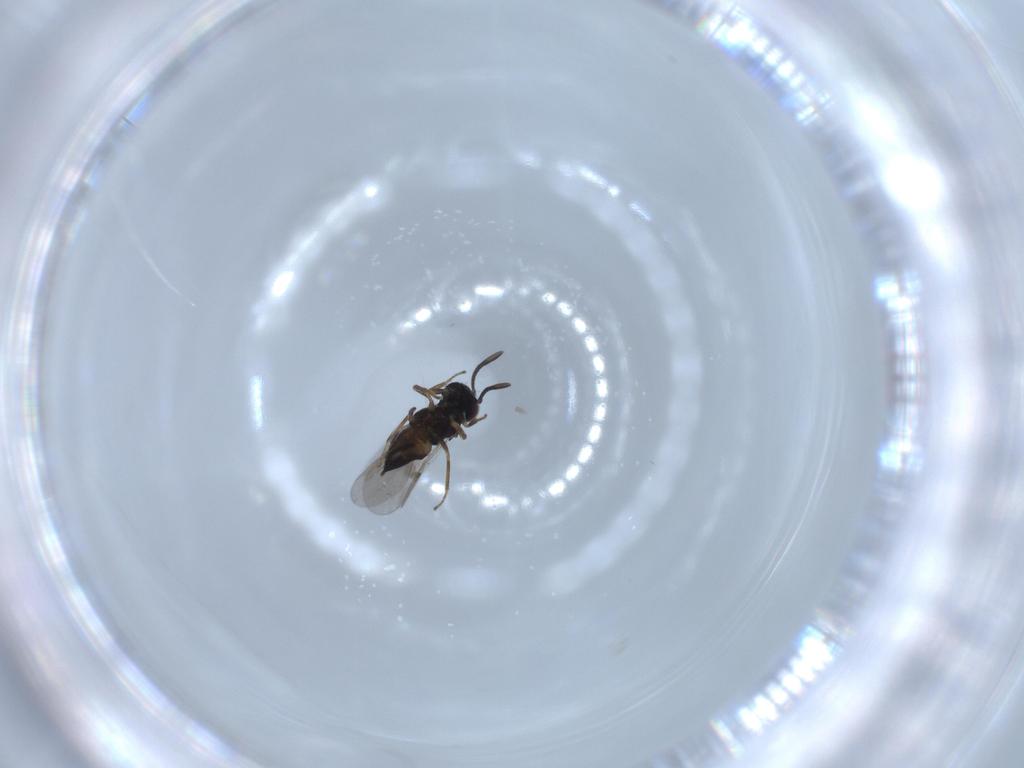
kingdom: Animalia
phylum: Arthropoda
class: Insecta
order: Hymenoptera
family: Encyrtidae
